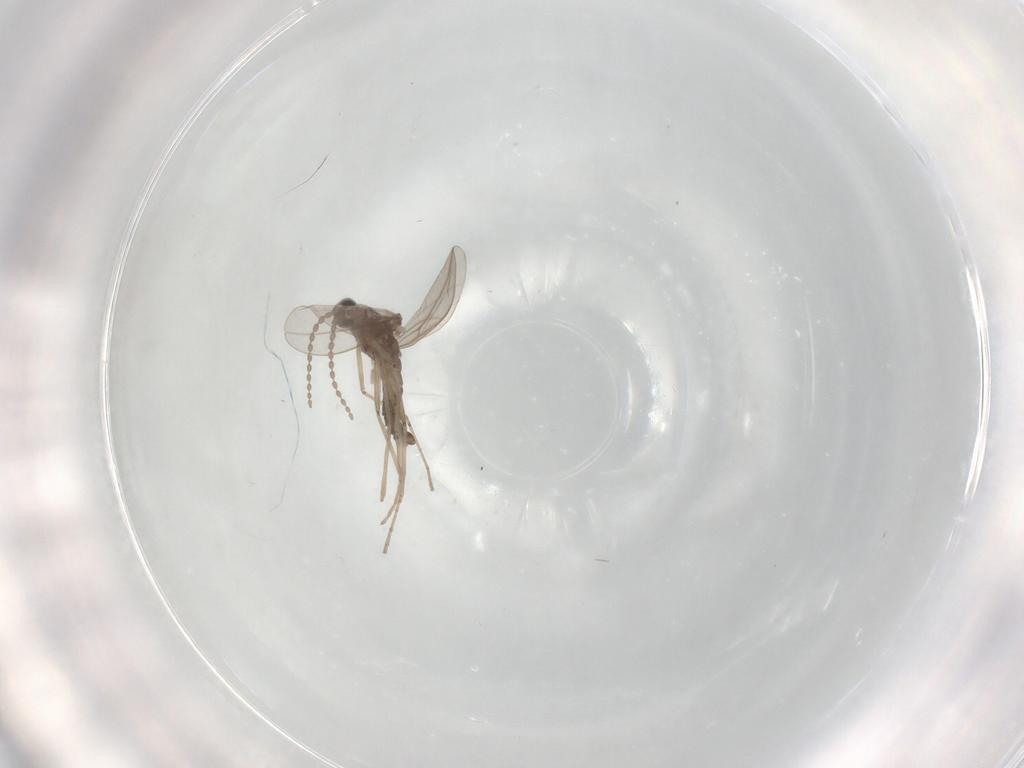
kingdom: Animalia
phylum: Arthropoda
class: Insecta
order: Diptera
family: Cecidomyiidae
